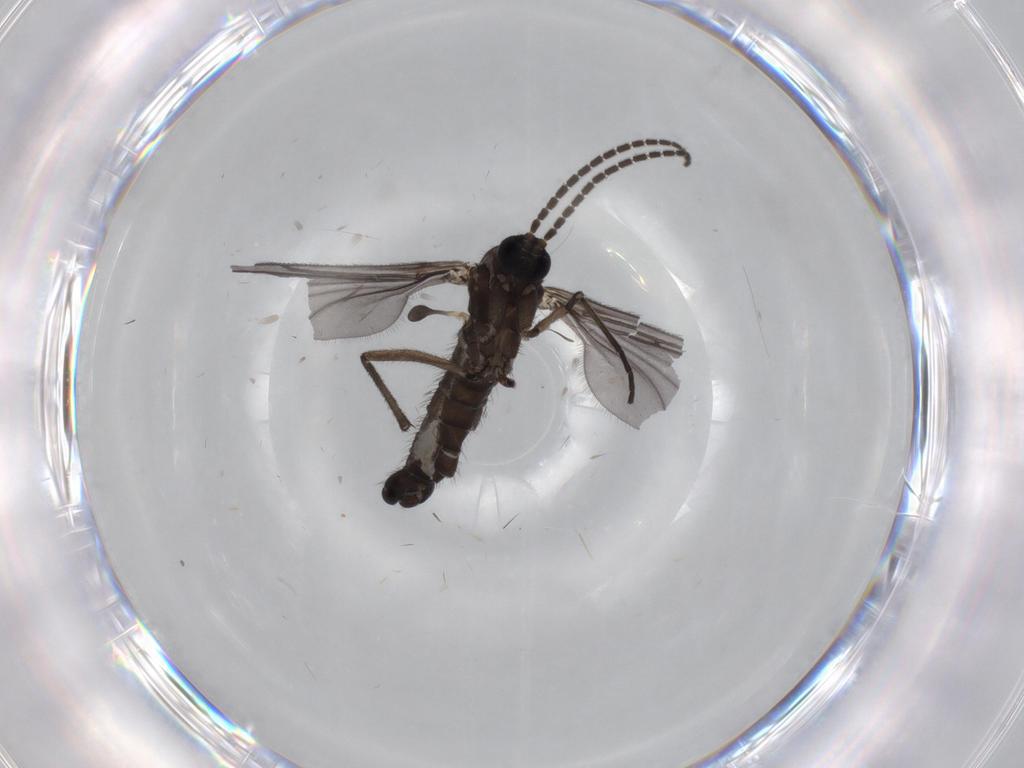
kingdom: Animalia
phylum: Arthropoda
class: Insecta
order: Diptera
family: Sciaridae
